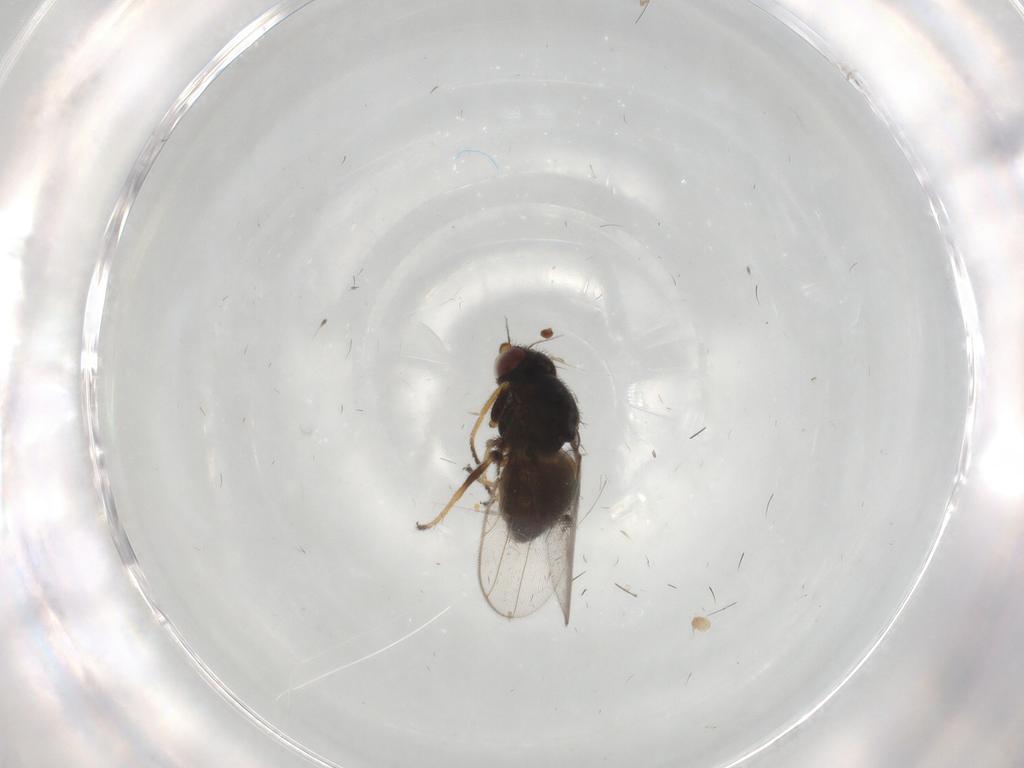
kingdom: Animalia
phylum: Arthropoda
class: Insecta
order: Diptera
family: Chloropidae
